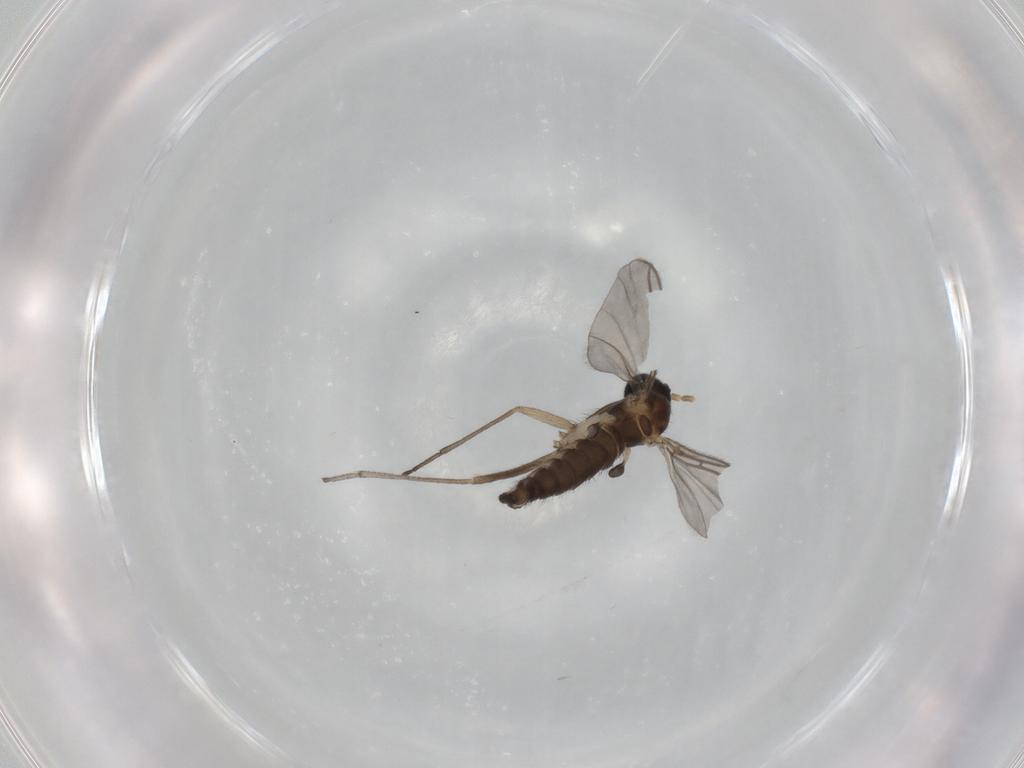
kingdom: Animalia
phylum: Arthropoda
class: Insecta
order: Diptera
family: Sciaridae
